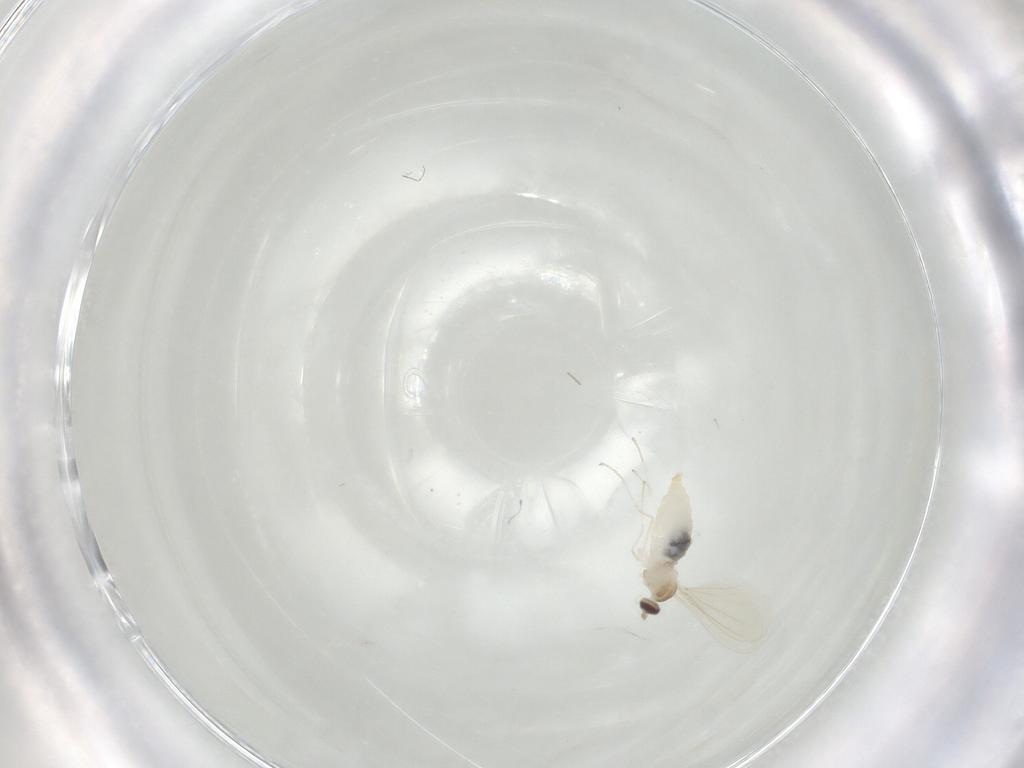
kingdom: Animalia
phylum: Arthropoda
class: Insecta
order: Diptera
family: Cecidomyiidae
